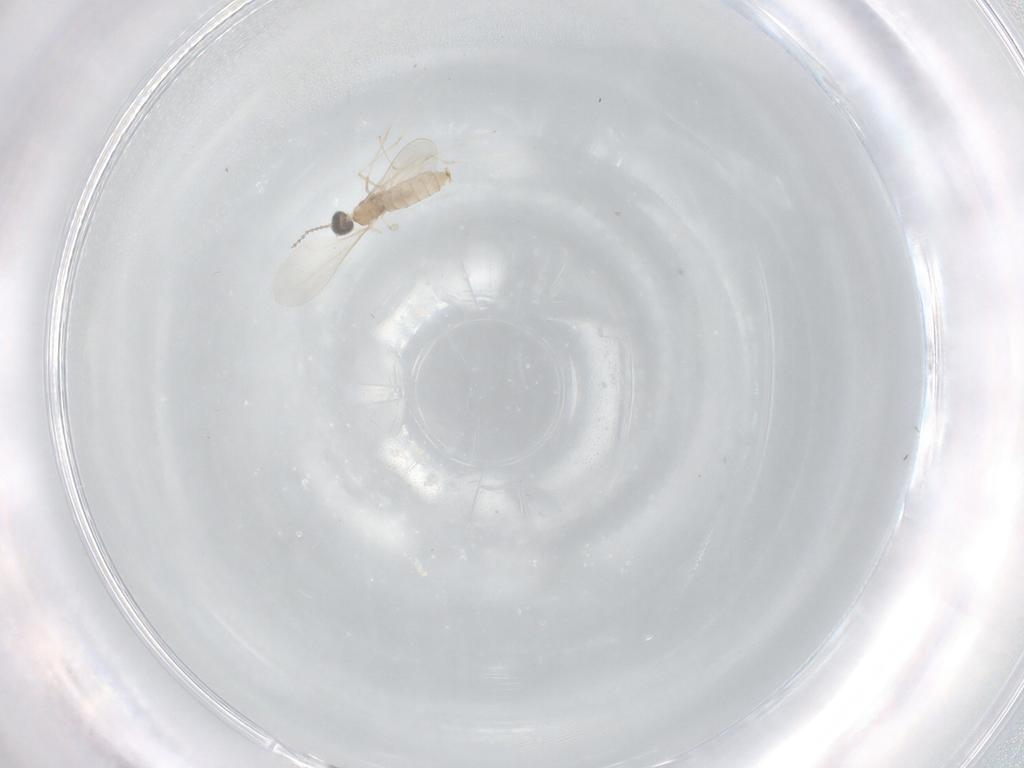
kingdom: Animalia
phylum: Arthropoda
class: Insecta
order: Diptera
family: Cecidomyiidae
